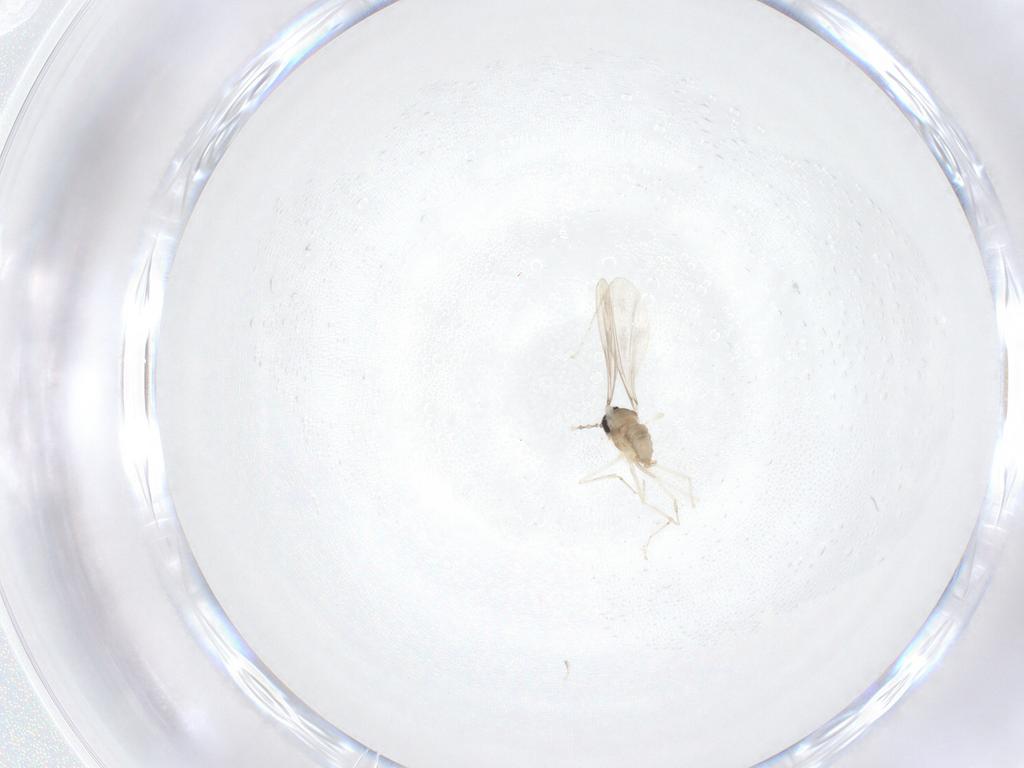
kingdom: Animalia
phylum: Arthropoda
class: Insecta
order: Diptera
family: Cecidomyiidae
